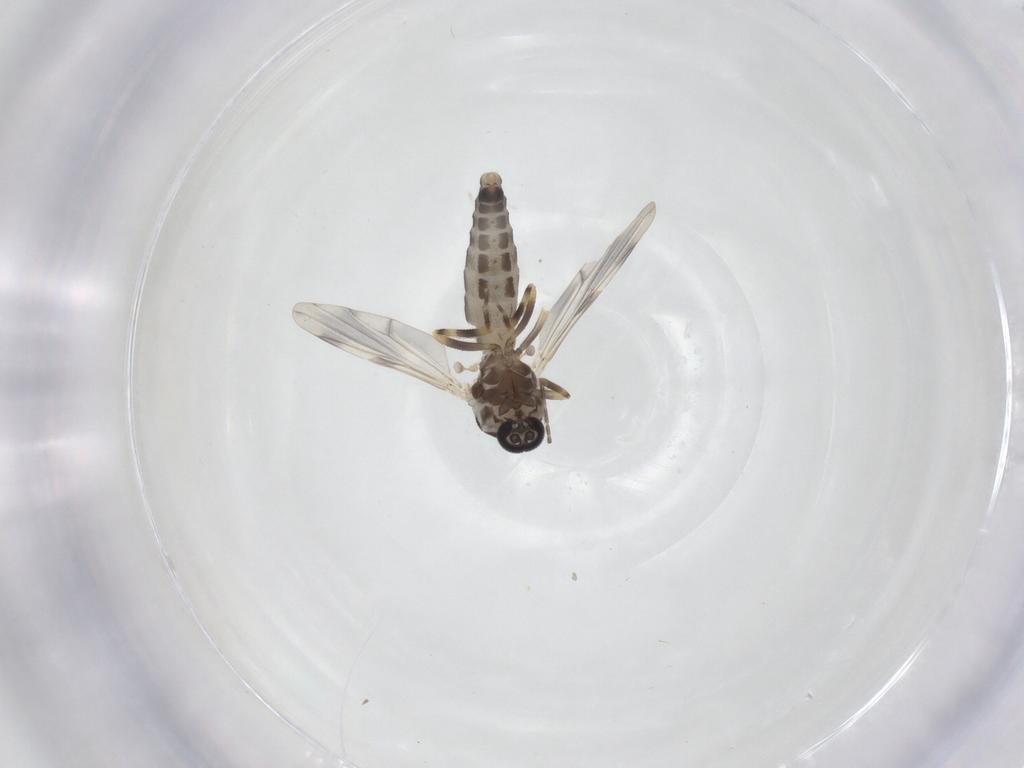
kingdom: Animalia
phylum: Arthropoda
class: Insecta
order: Diptera
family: Ceratopogonidae
